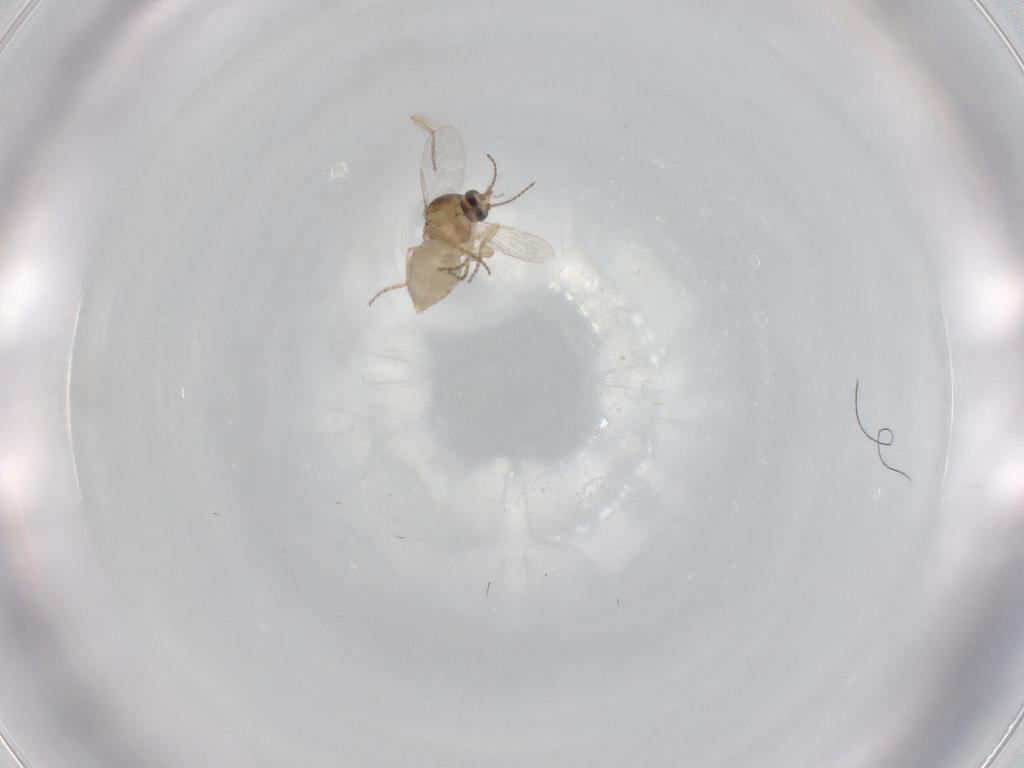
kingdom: Animalia
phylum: Arthropoda
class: Insecta
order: Diptera
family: Ceratopogonidae
